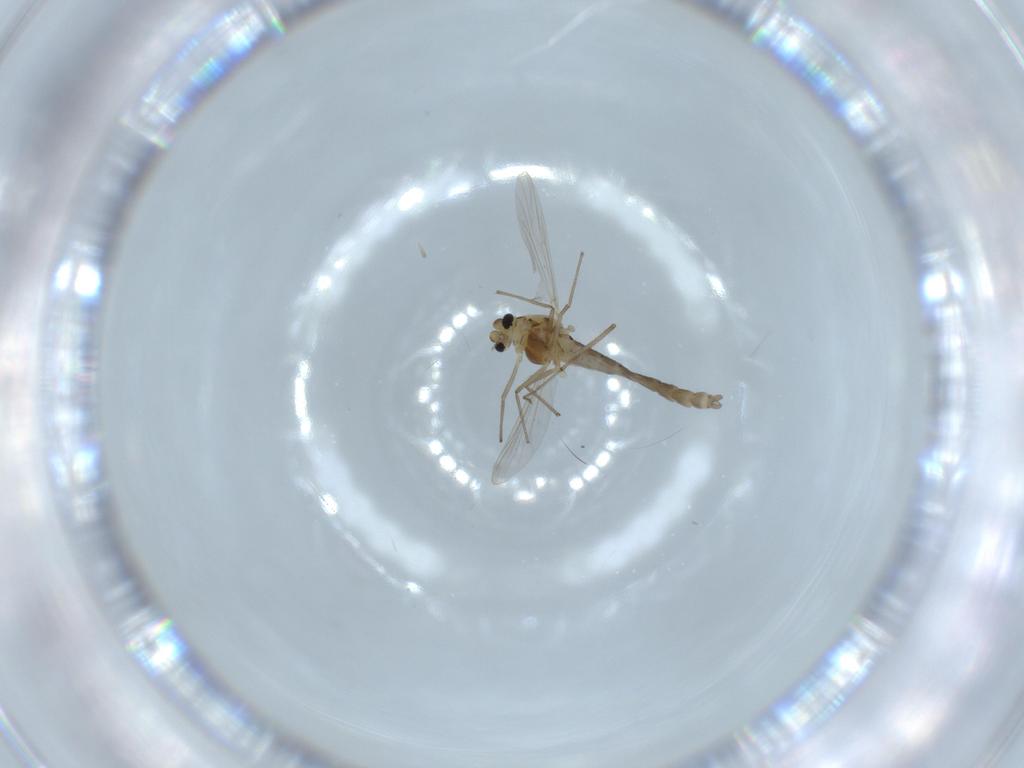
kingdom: Animalia
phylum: Arthropoda
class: Insecta
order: Diptera
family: Chironomidae
